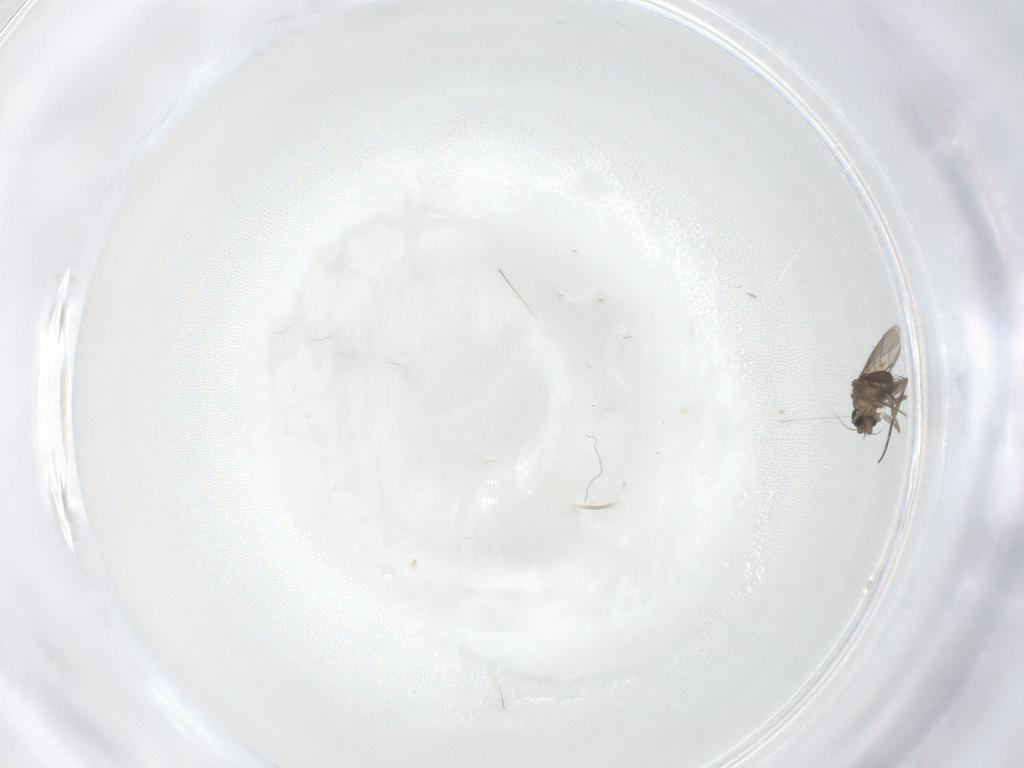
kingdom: Animalia
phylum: Arthropoda
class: Insecta
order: Diptera
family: Phoridae
